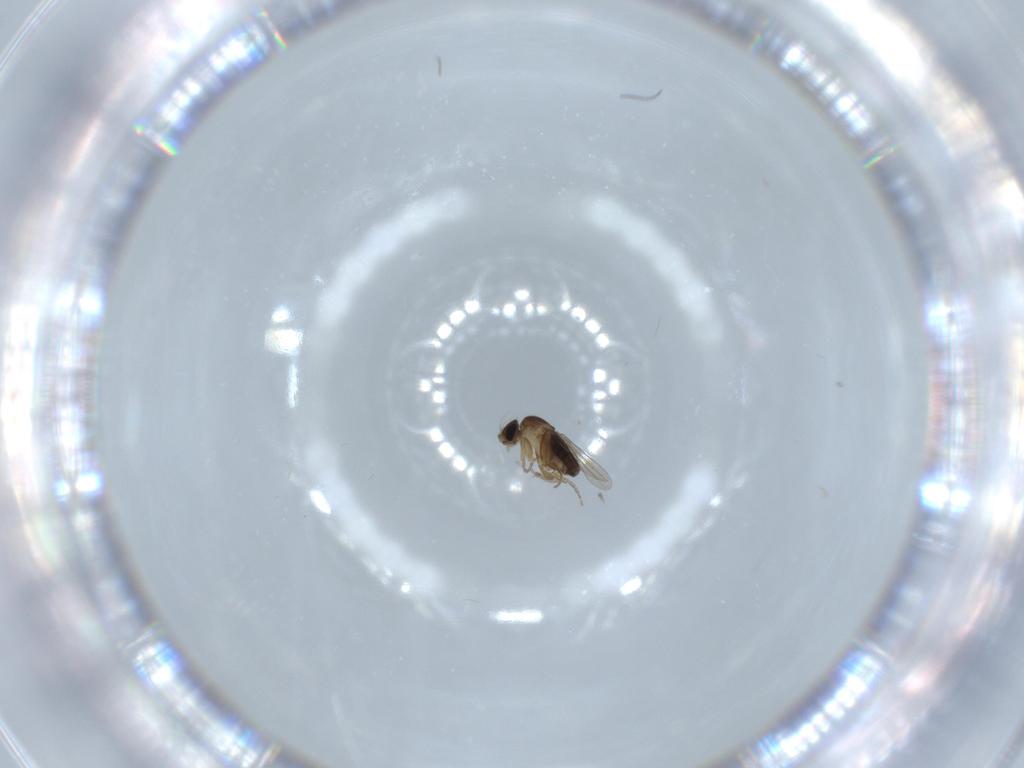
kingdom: Animalia
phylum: Arthropoda
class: Insecta
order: Diptera
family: Phoridae
